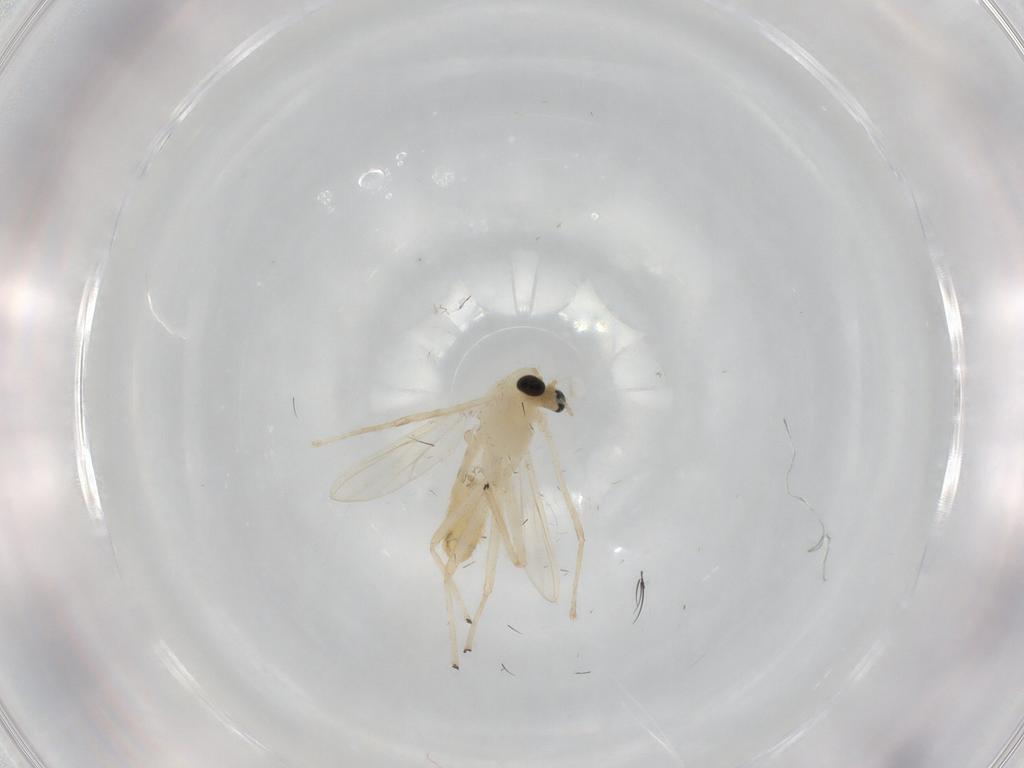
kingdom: Animalia
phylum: Arthropoda
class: Insecta
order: Diptera
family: Chironomidae
